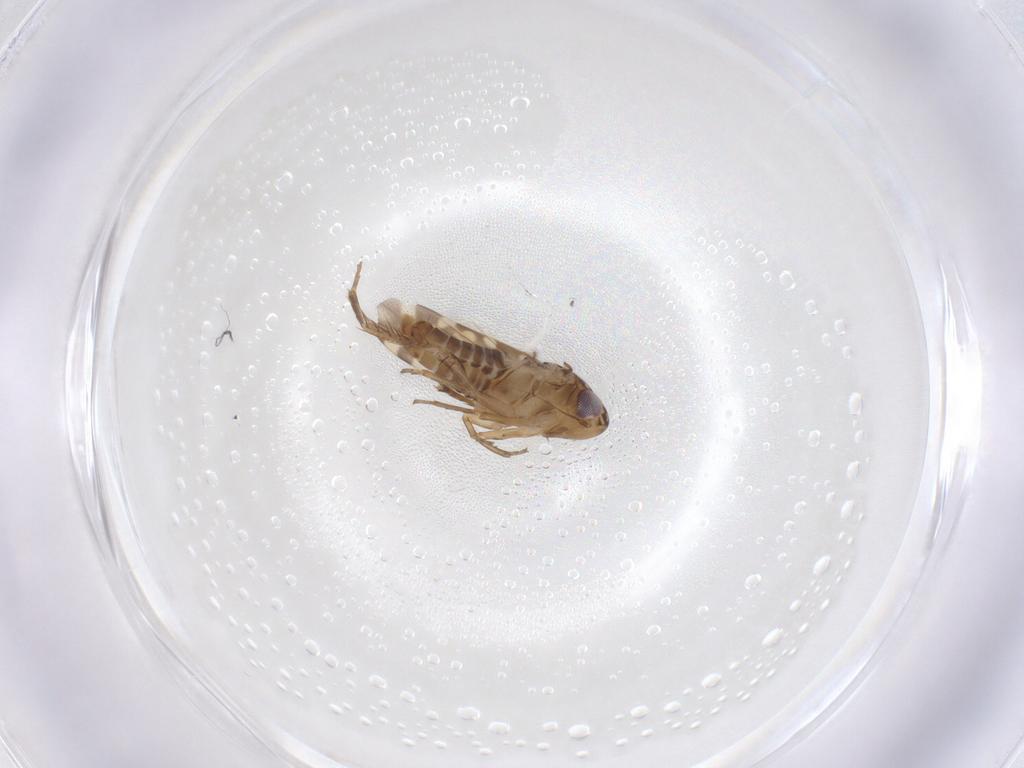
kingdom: Animalia
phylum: Arthropoda
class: Insecta
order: Hemiptera
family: Cicadellidae
